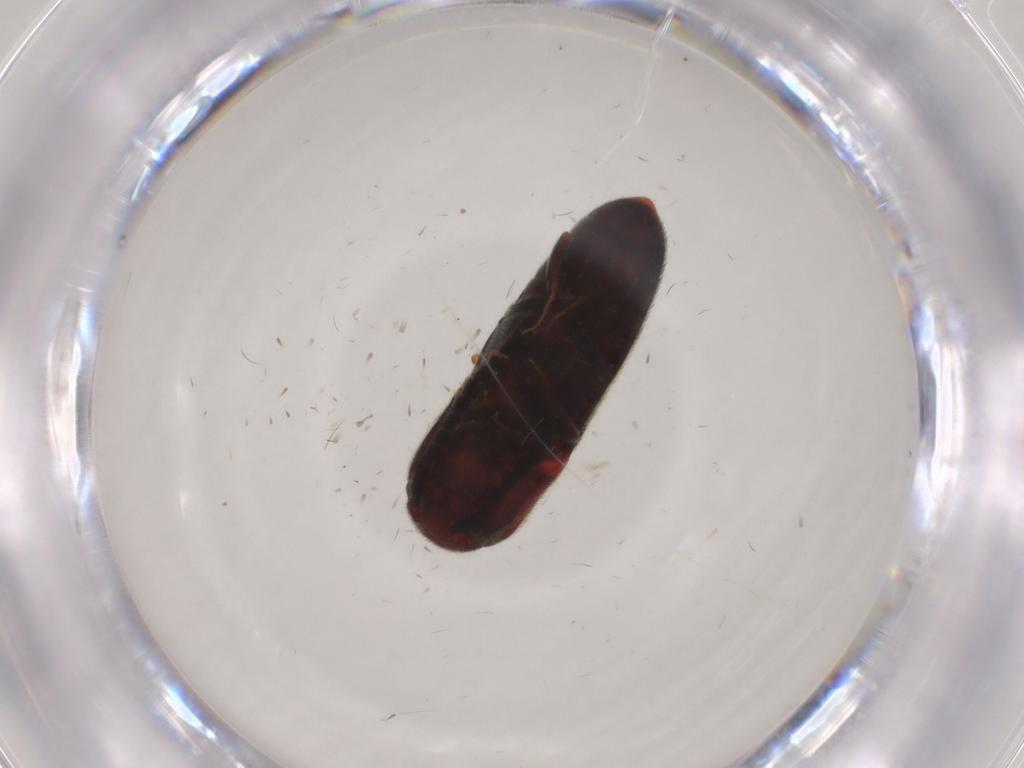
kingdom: Animalia
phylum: Arthropoda
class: Insecta
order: Coleoptera
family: Eucnemidae
